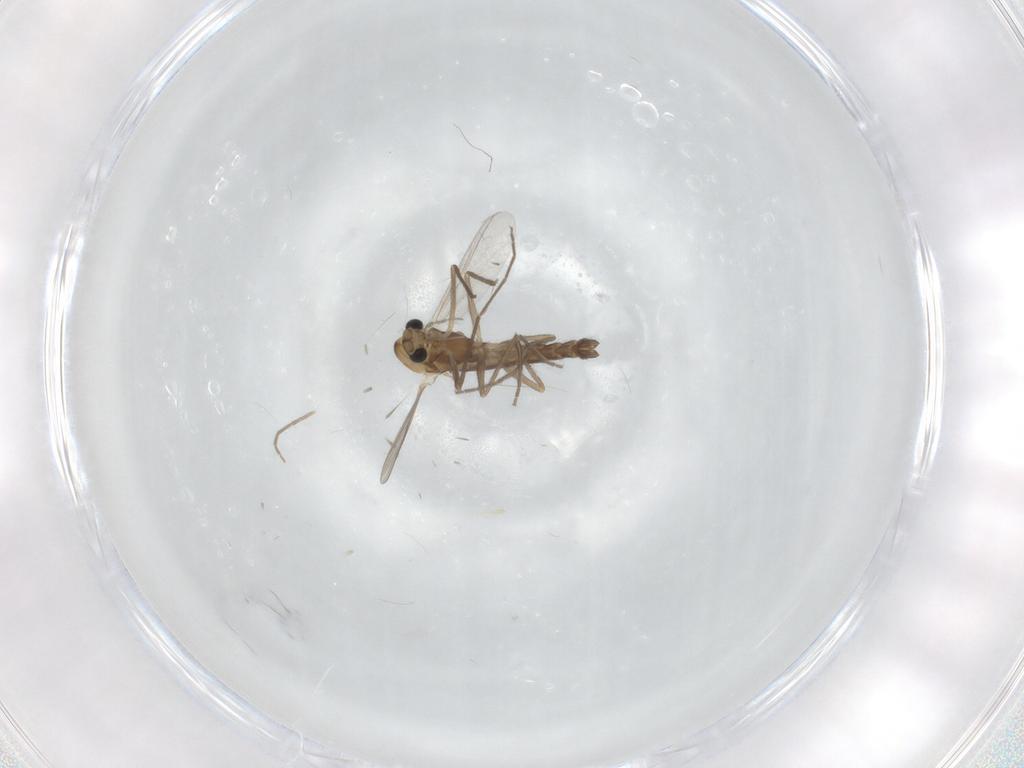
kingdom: Animalia
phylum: Arthropoda
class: Insecta
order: Diptera
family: Chironomidae
